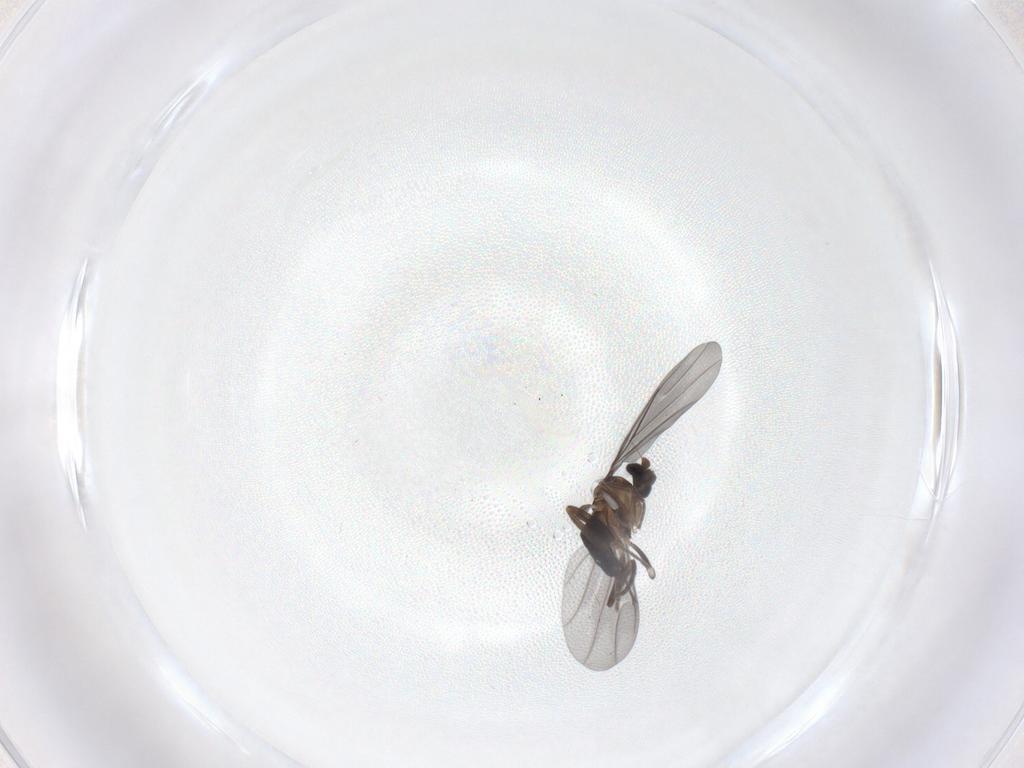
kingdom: Animalia
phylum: Arthropoda
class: Insecta
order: Diptera
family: Phoridae
